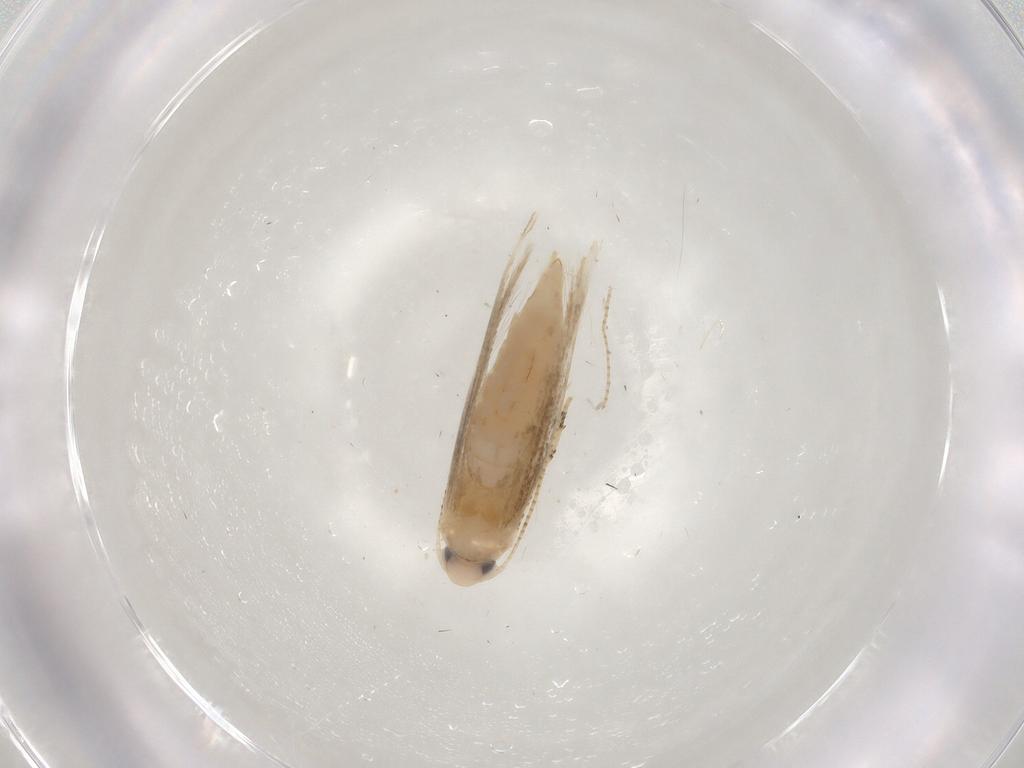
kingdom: Animalia
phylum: Arthropoda
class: Insecta
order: Lepidoptera
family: Gracillariidae
